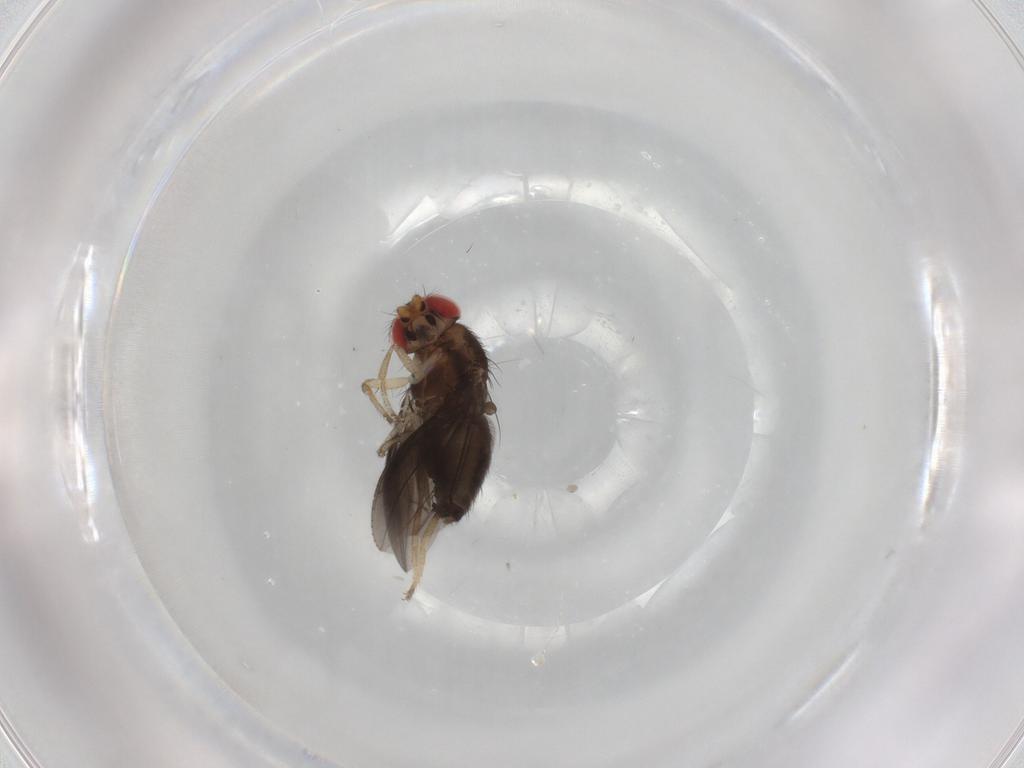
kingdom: Animalia
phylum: Arthropoda
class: Insecta
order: Diptera
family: Drosophilidae
